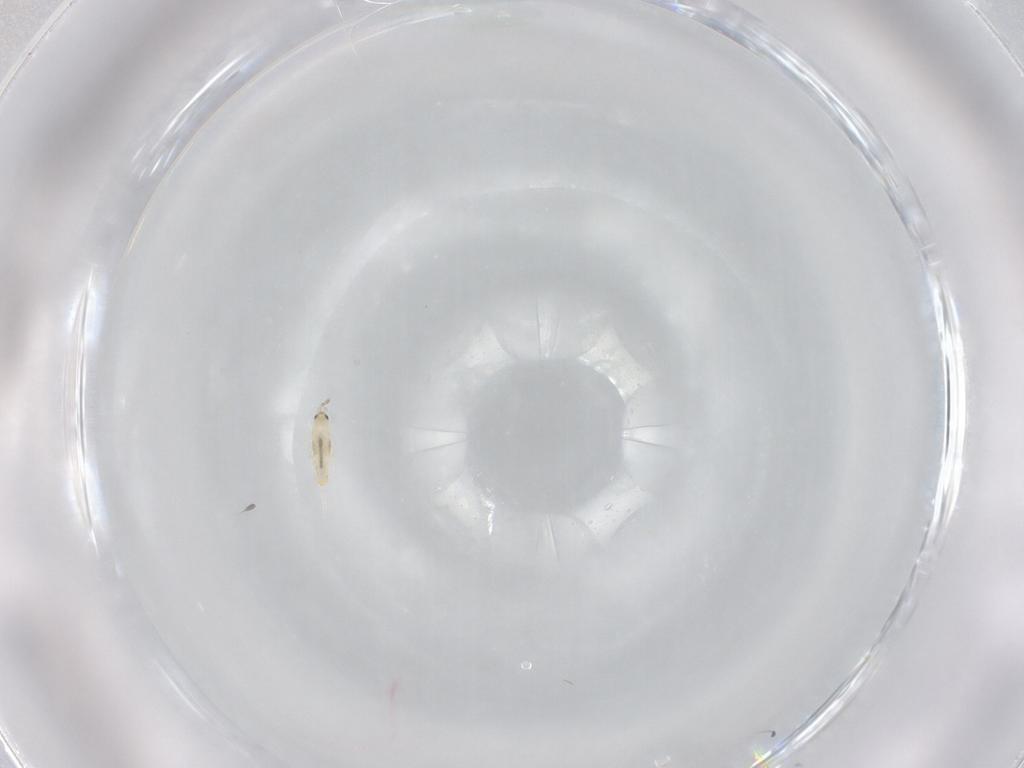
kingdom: Animalia
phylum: Arthropoda
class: Collembola
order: Entomobryomorpha
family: Entomobryidae
